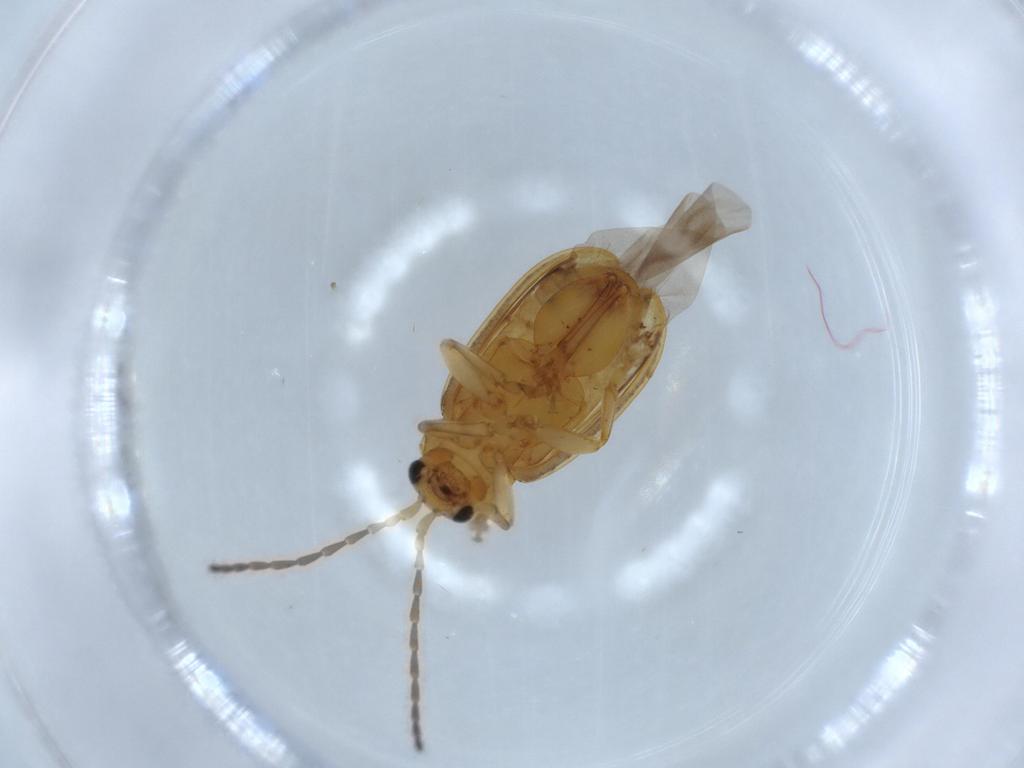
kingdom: Animalia
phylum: Arthropoda
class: Insecta
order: Coleoptera
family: Chrysomelidae
